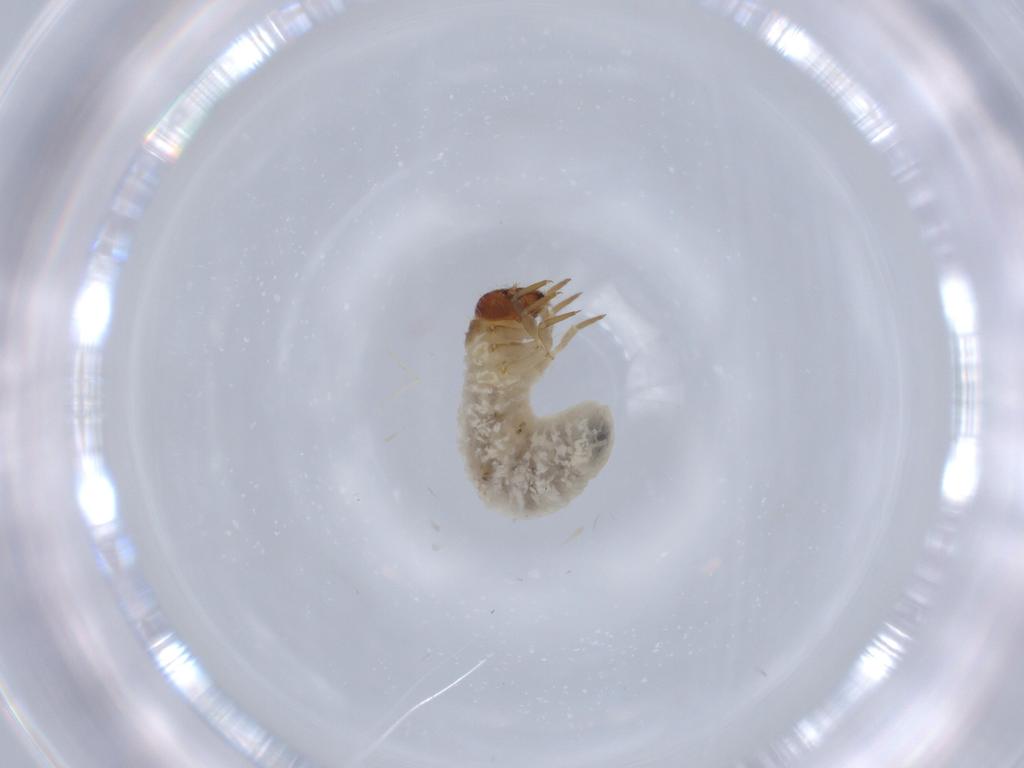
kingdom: Animalia
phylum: Arthropoda
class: Insecta
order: Coleoptera
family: Chrysomelidae
